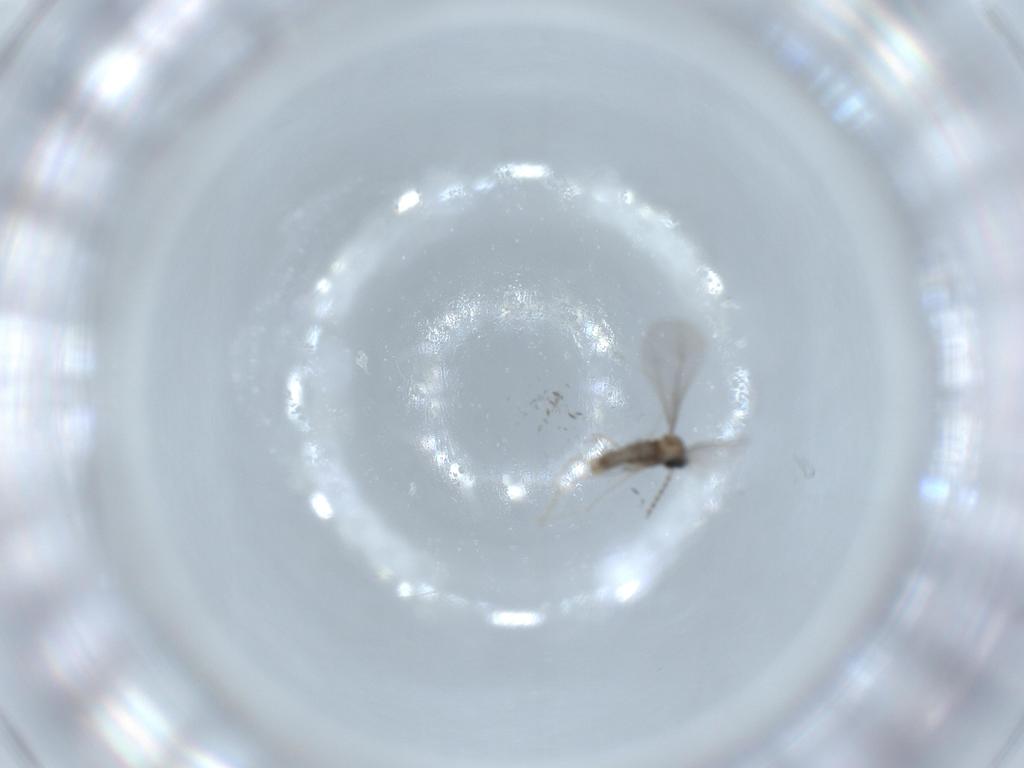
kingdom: Animalia
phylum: Arthropoda
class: Insecta
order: Diptera
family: Cecidomyiidae
